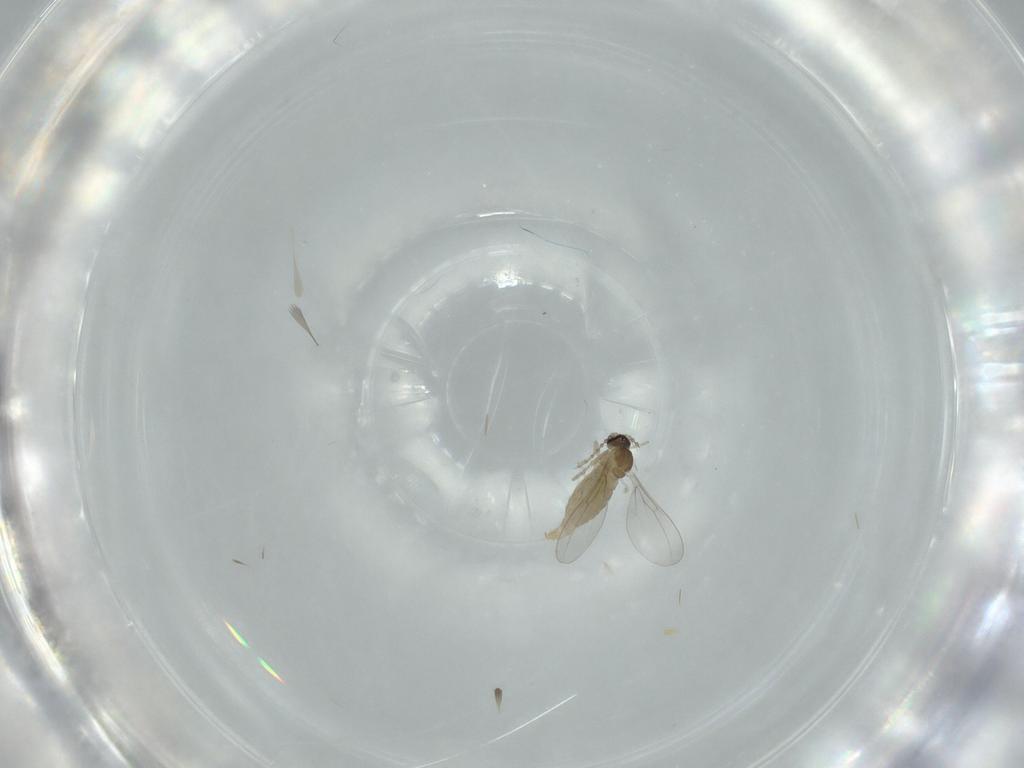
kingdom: Animalia
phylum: Arthropoda
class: Insecta
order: Diptera
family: Cecidomyiidae
